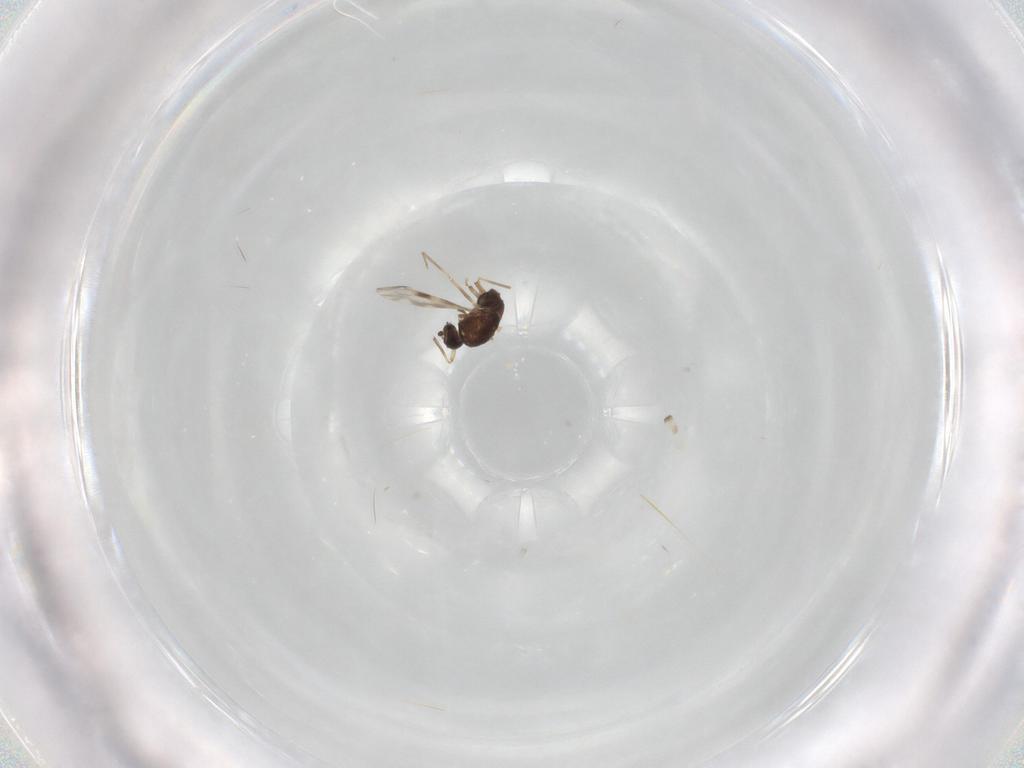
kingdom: Animalia
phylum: Arthropoda
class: Insecta
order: Diptera
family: Ceratopogonidae
